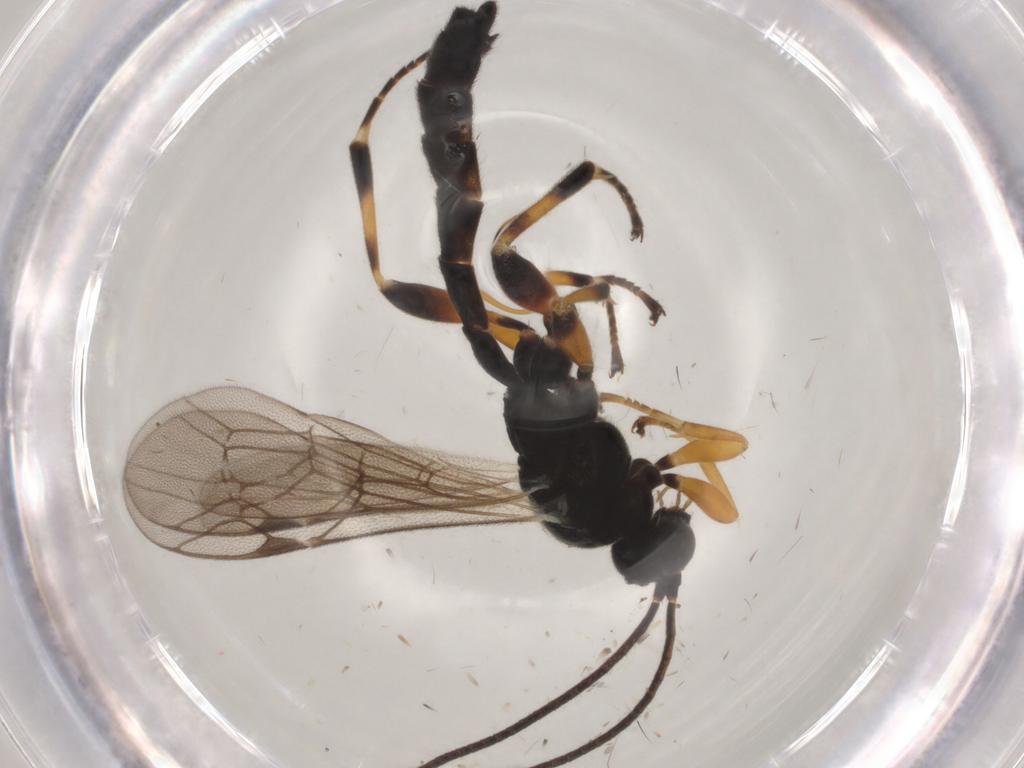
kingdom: Animalia
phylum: Arthropoda
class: Insecta
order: Hymenoptera
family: Ichneumonidae
